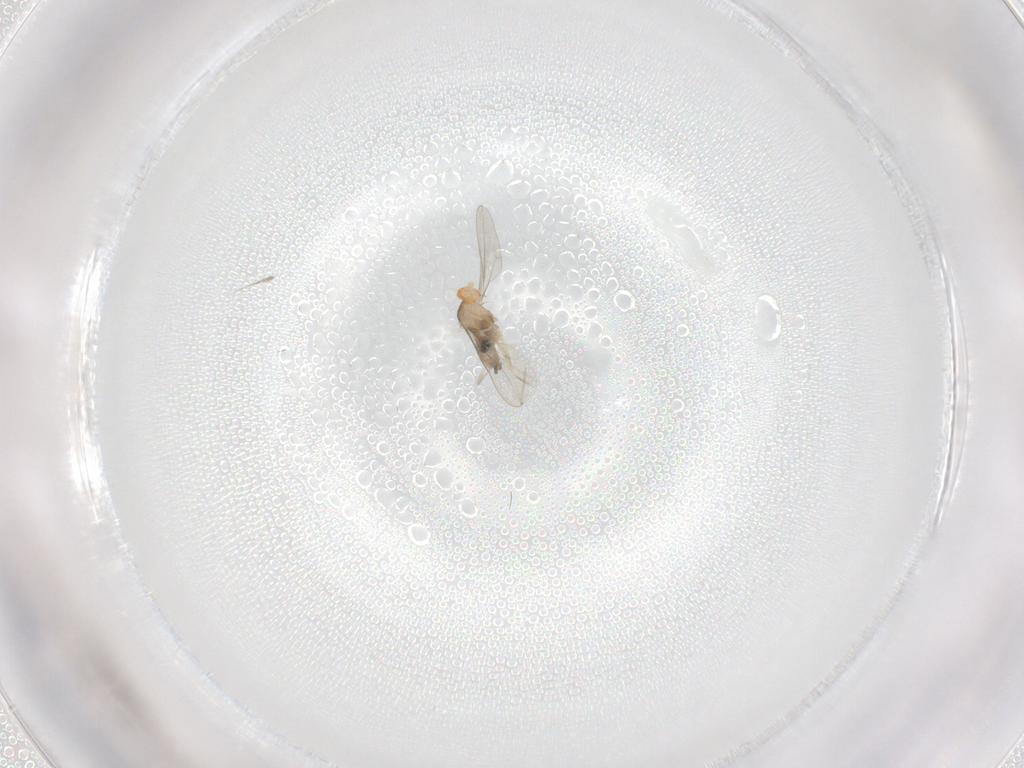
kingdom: Animalia
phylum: Arthropoda
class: Insecta
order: Diptera
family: Cecidomyiidae
